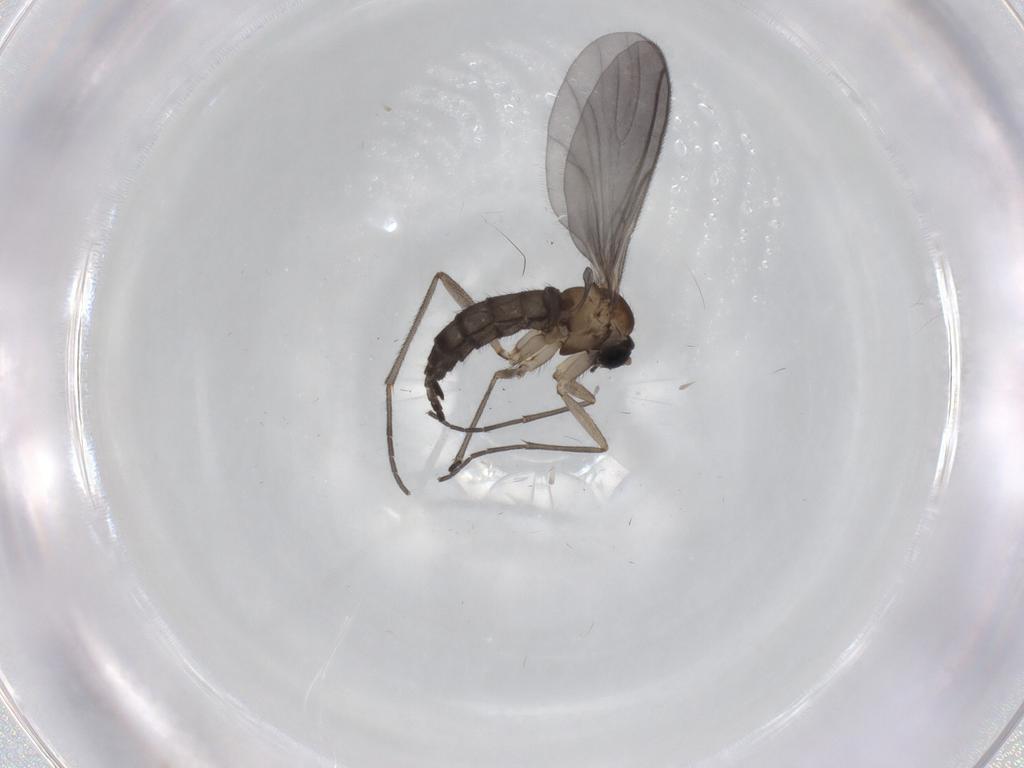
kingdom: Animalia
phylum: Arthropoda
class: Insecta
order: Diptera
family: Sciaridae
